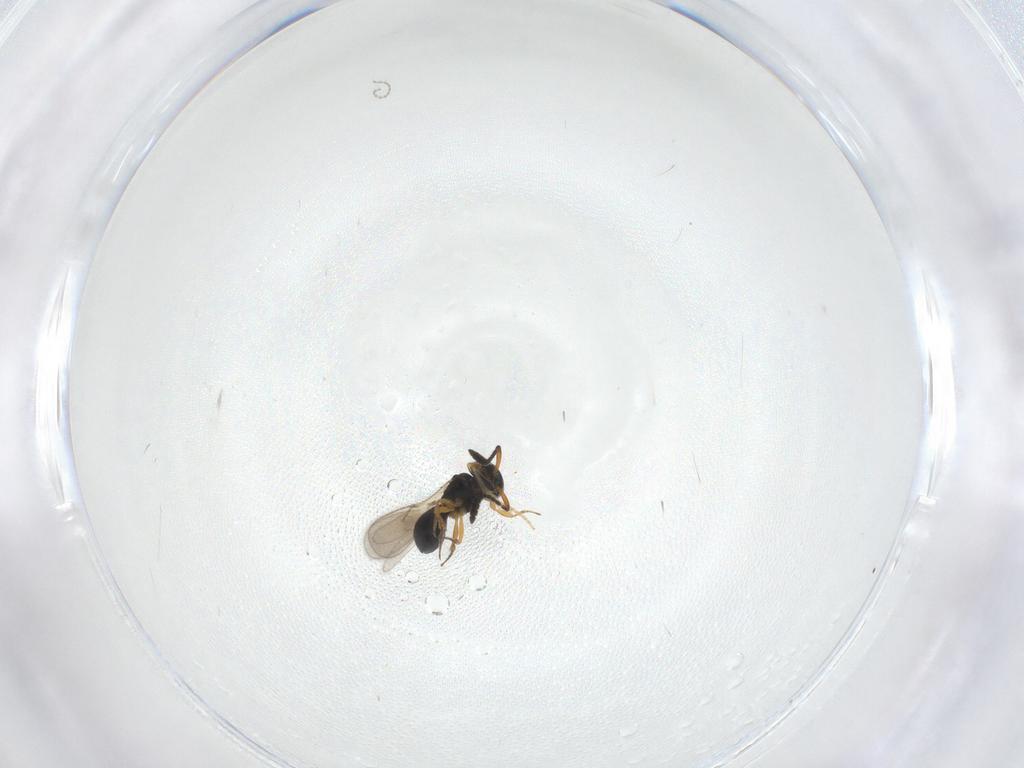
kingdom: Animalia
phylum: Arthropoda
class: Insecta
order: Hymenoptera
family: Scelionidae
